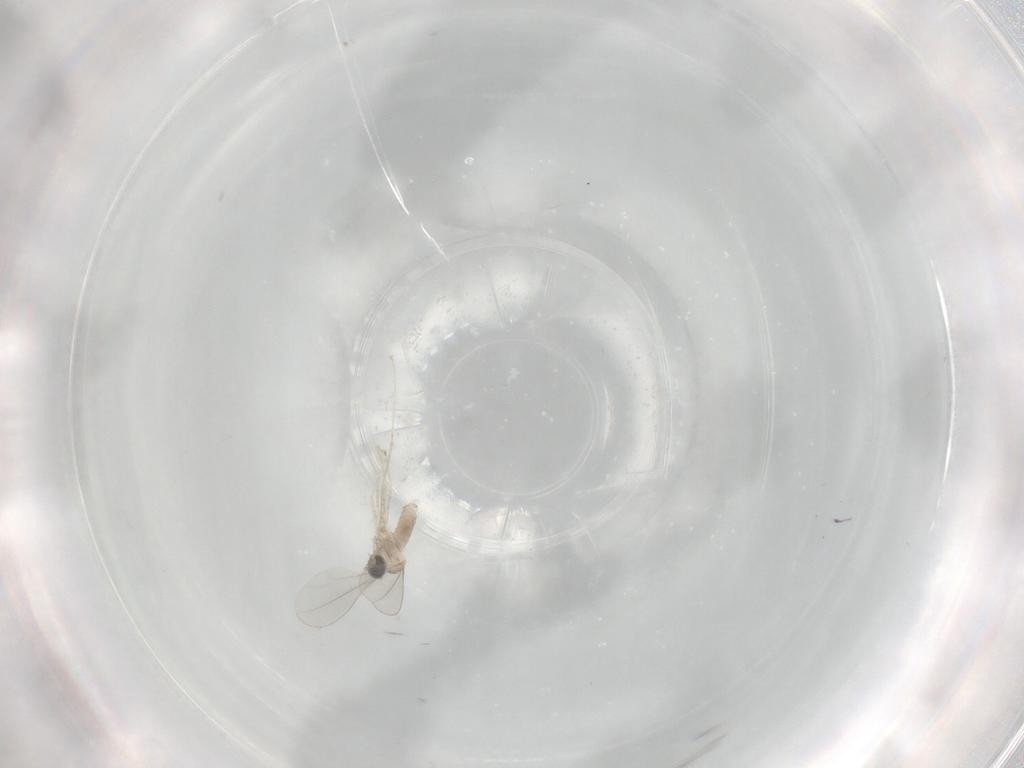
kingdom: Animalia
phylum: Arthropoda
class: Insecta
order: Diptera
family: Cecidomyiidae
